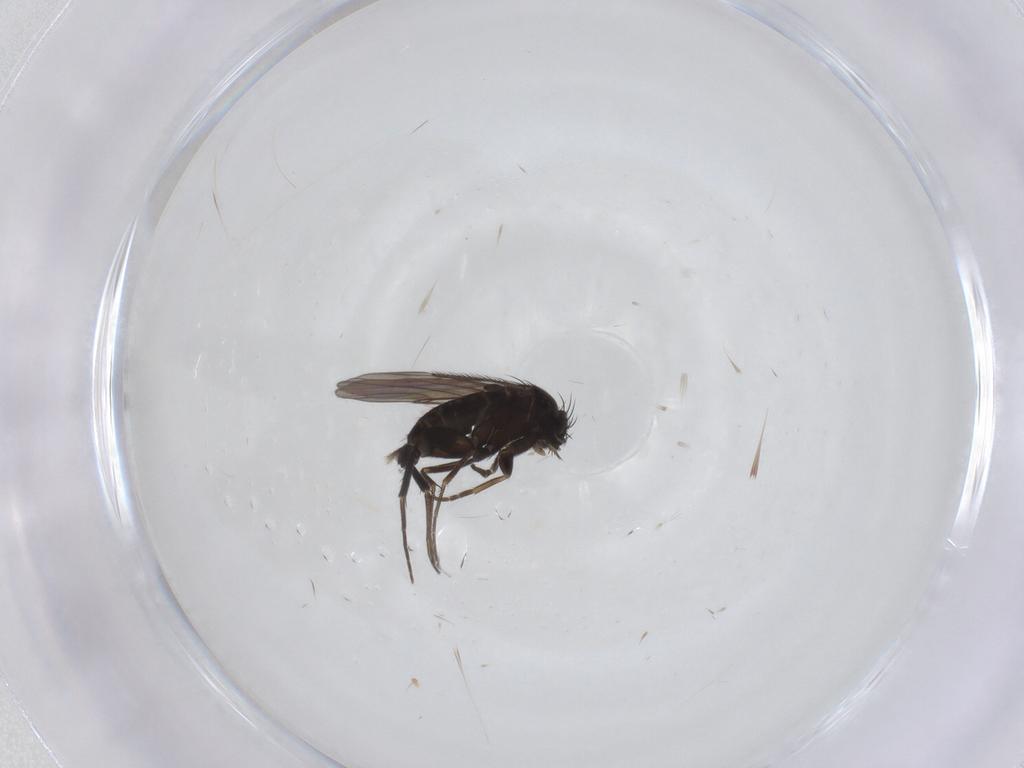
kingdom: Animalia
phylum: Arthropoda
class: Insecta
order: Diptera
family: Phoridae
